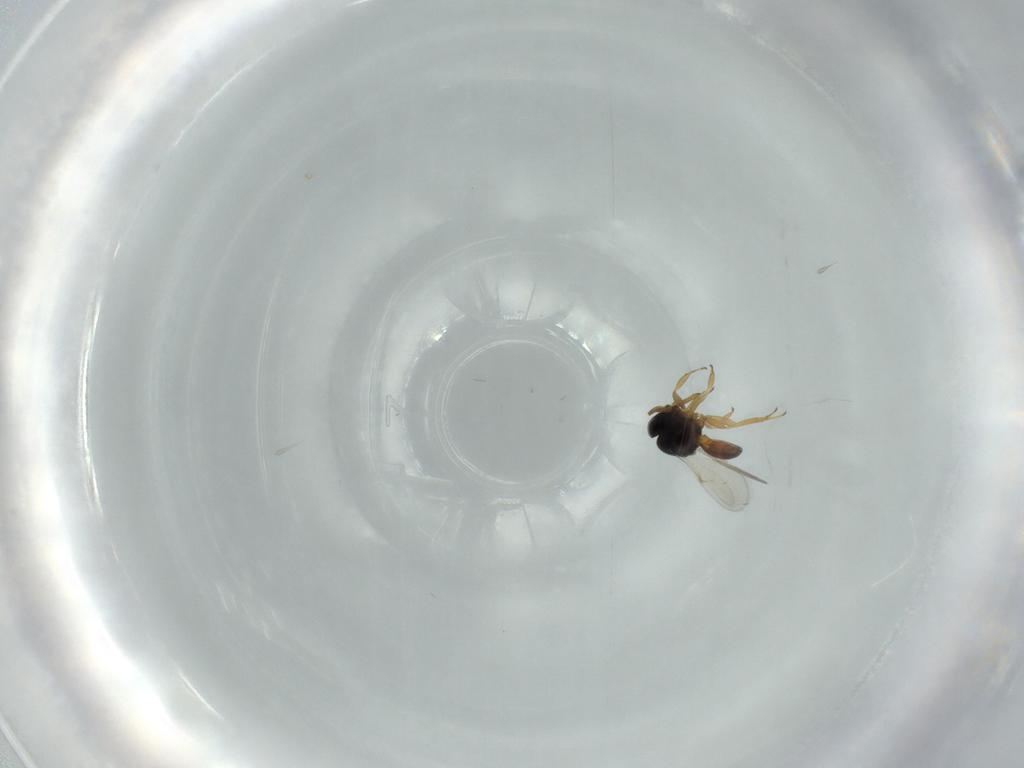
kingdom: Animalia
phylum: Arthropoda
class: Insecta
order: Hymenoptera
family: Scelionidae
